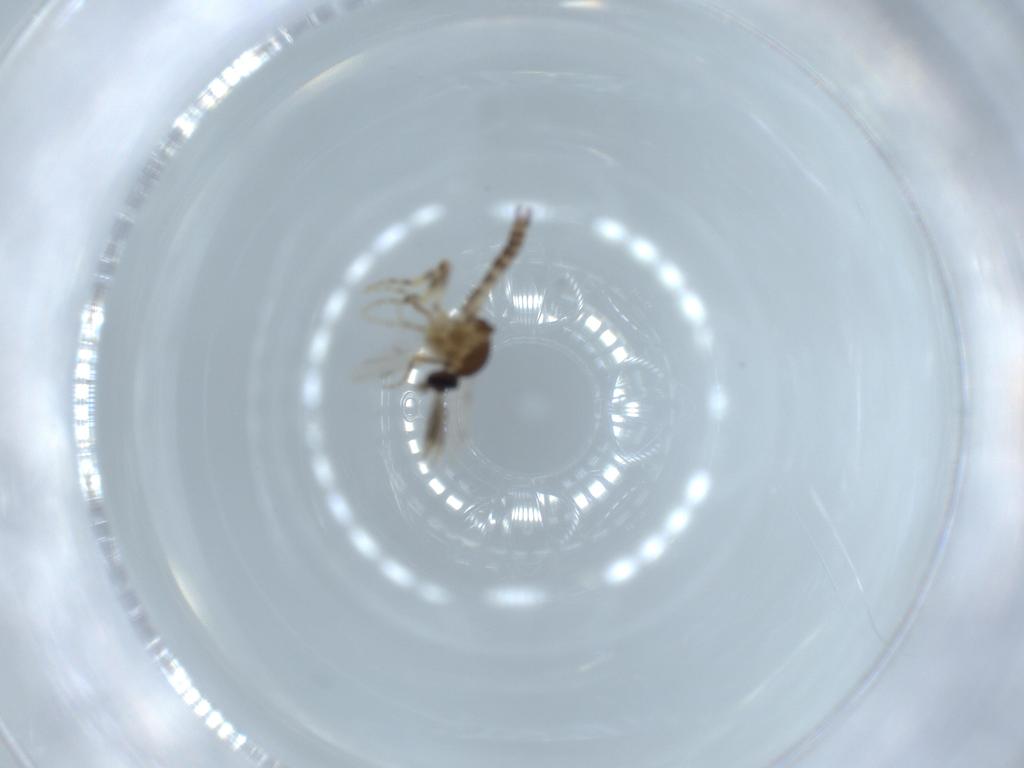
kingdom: Animalia
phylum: Arthropoda
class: Insecta
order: Diptera
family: Ceratopogonidae
